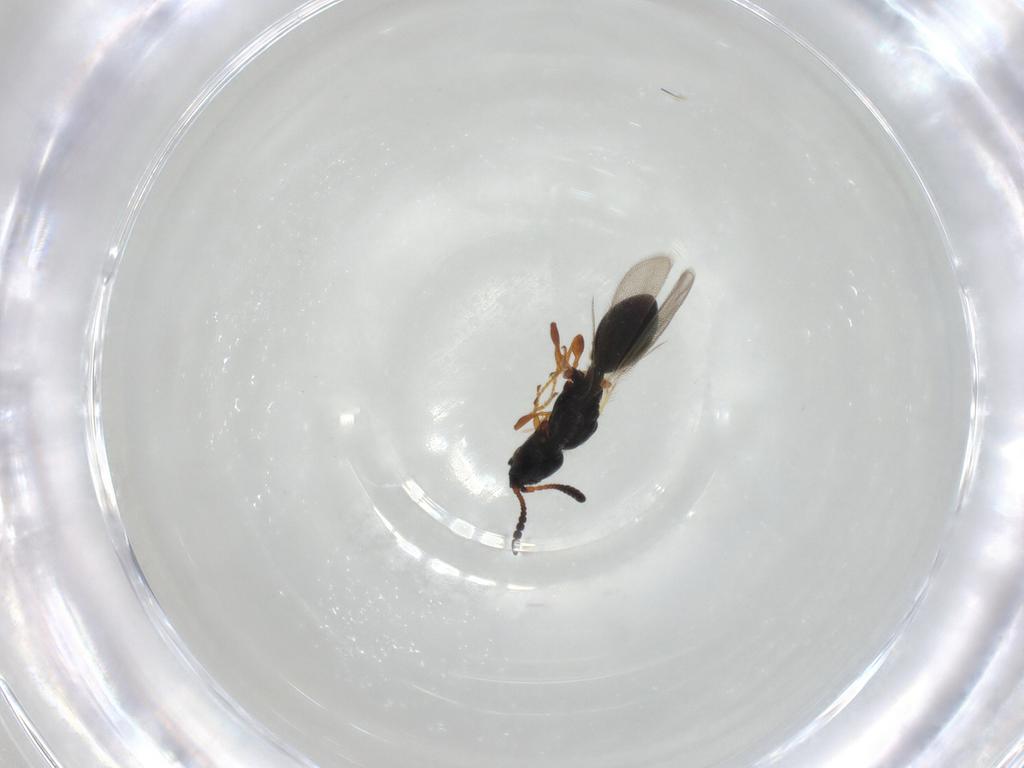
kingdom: Animalia
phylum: Arthropoda
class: Insecta
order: Hymenoptera
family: Diapriidae
